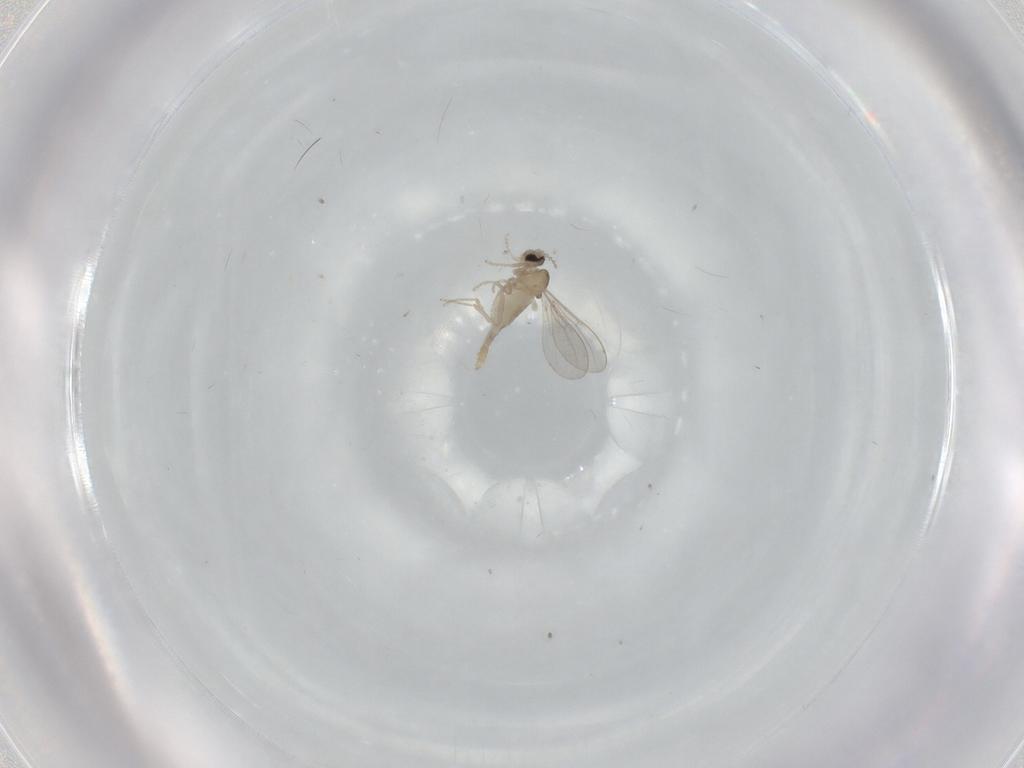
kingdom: Animalia
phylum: Arthropoda
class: Insecta
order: Diptera
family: Cecidomyiidae
